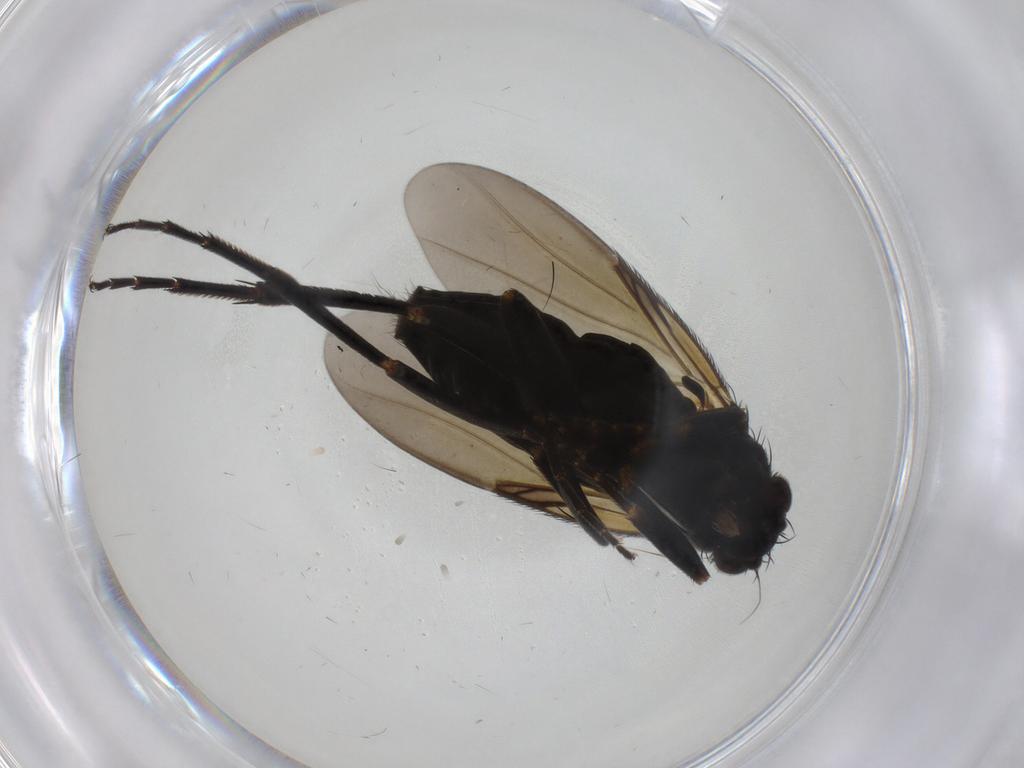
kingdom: Animalia
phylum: Arthropoda
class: Insecta
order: Diptera
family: Phoridae
